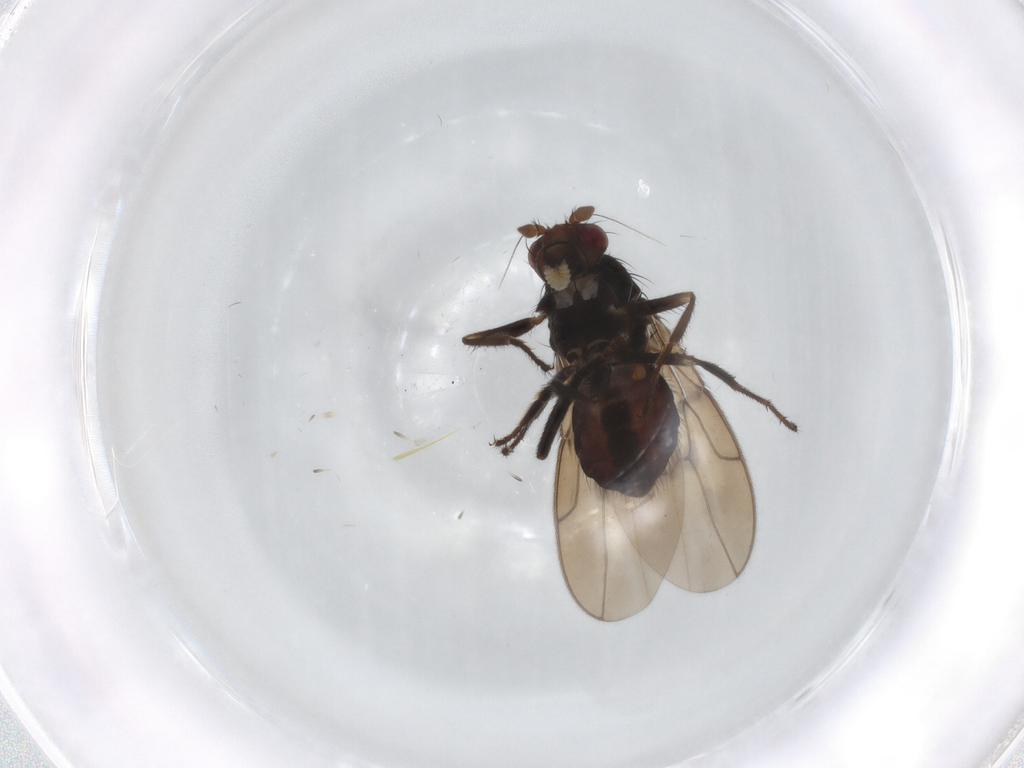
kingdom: Animalia
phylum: Arthropoda
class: Insecta
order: Diptera
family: Sphaeroceridae
